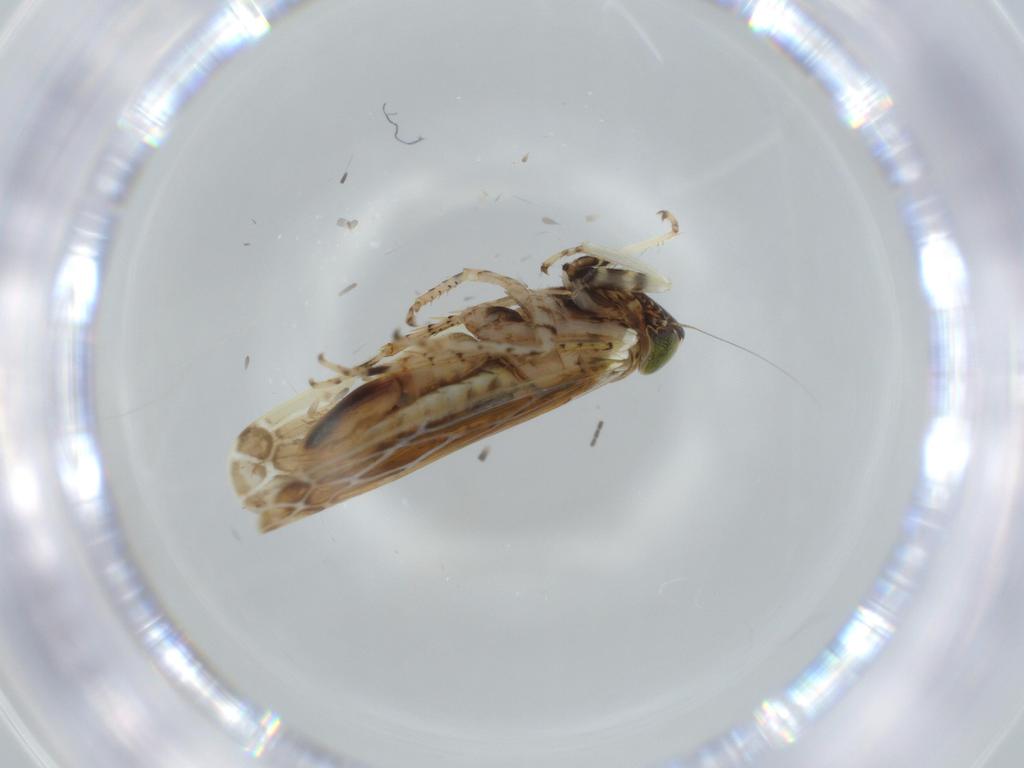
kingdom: Animalia
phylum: Arthropoda
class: Insecta
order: Hemiptera
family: Cicadellidae
